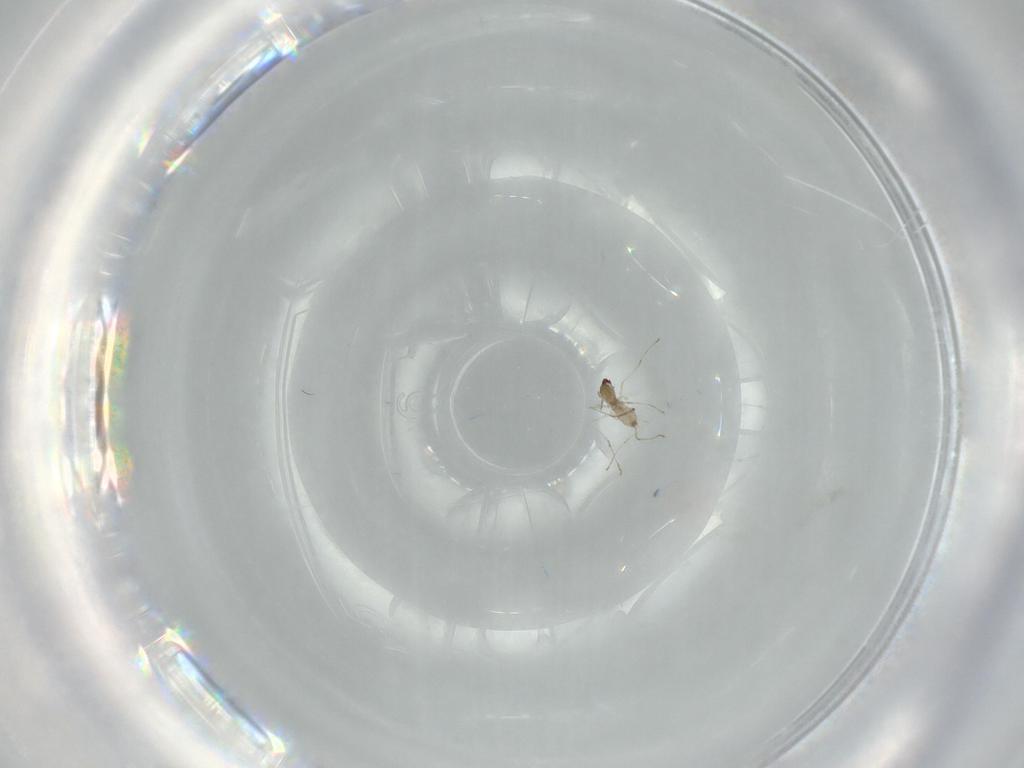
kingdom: Animalia
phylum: Arthropoda
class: Insecta
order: Diptera
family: Cecidomyiidae
